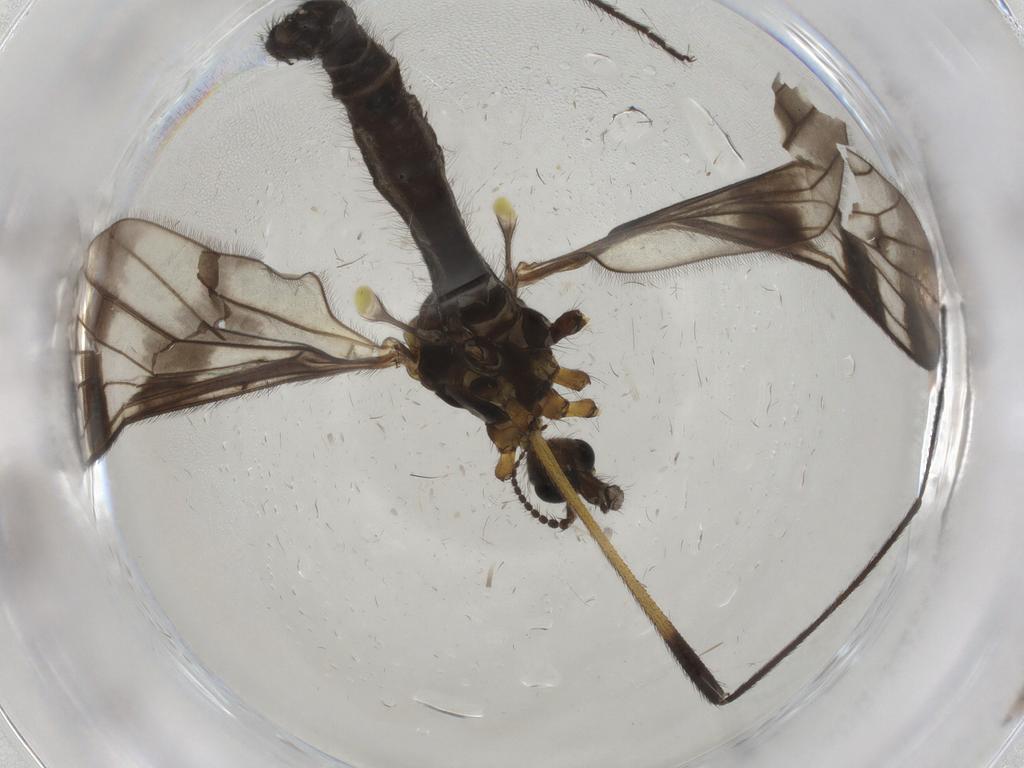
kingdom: Animalia
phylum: Arthropoda
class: Insecta
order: Diptera
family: Limoniidae
